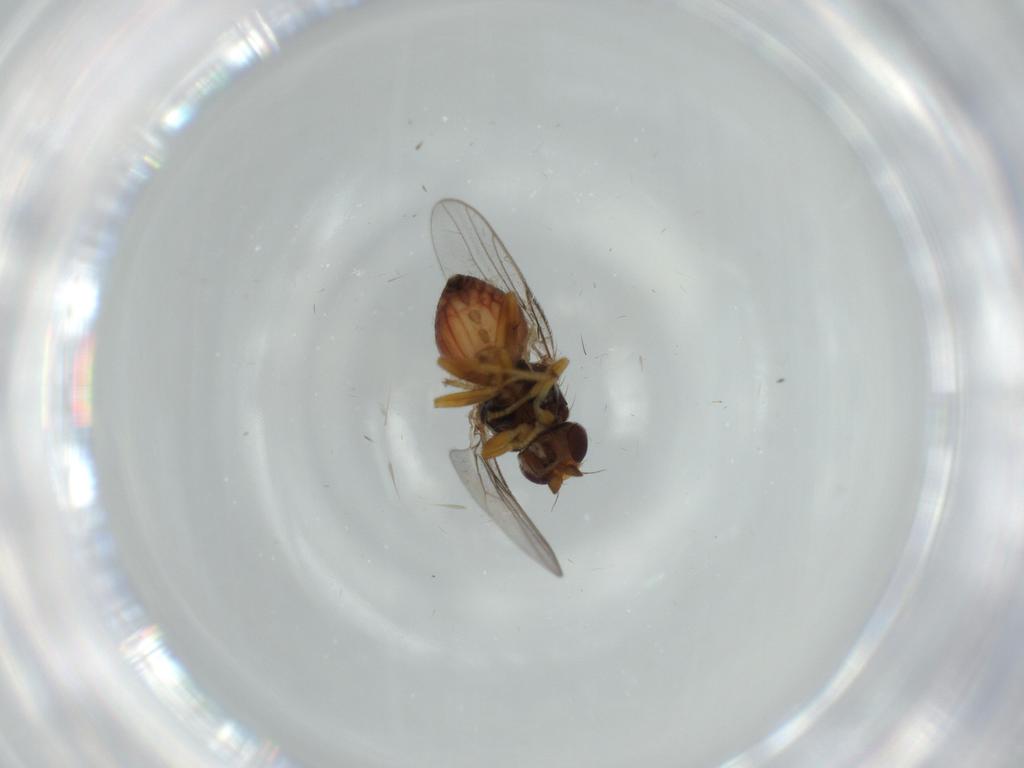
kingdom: Animalia
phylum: Arthropoda
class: Insecta
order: Diptera
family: Chloropidae
